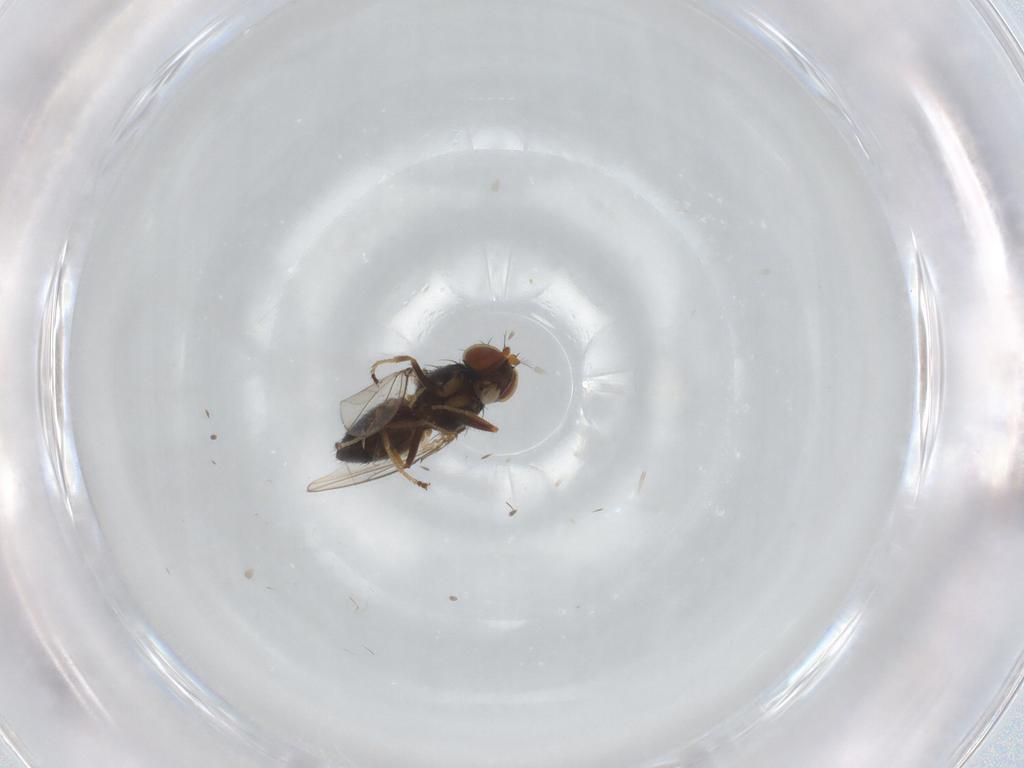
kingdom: Animalia
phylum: Arthropoda
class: Insecta
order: Diptera
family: Ephydridae
